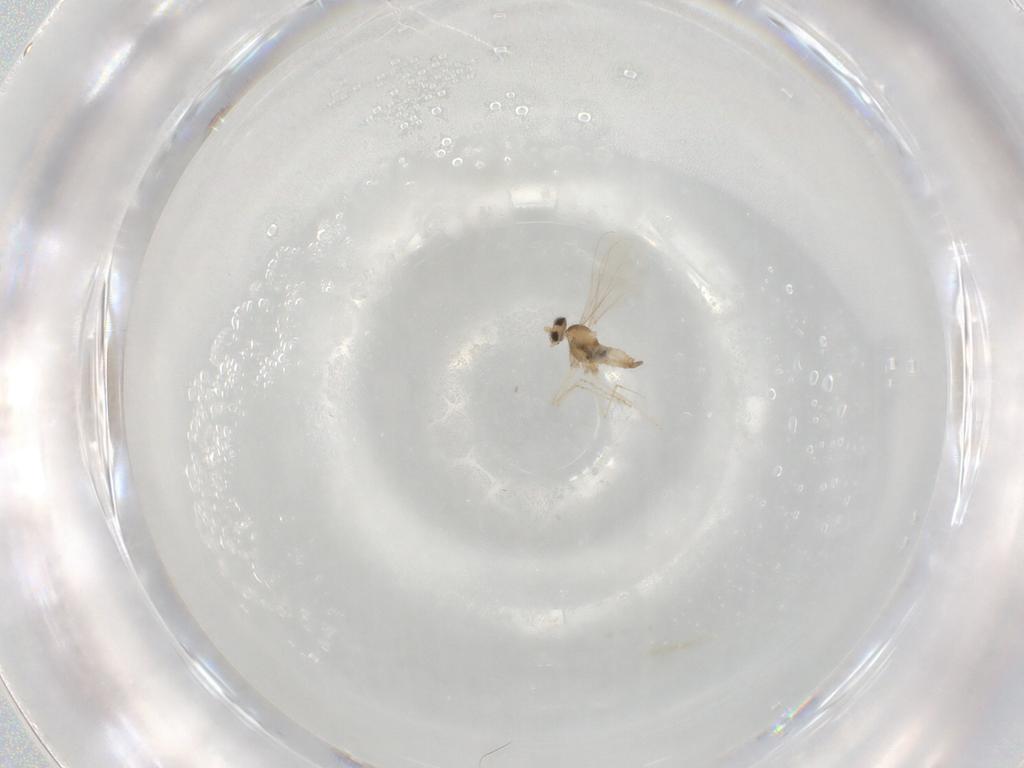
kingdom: Animalia
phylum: Arthropoda
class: Insecta
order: Diptera
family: Cecidomyiidae
